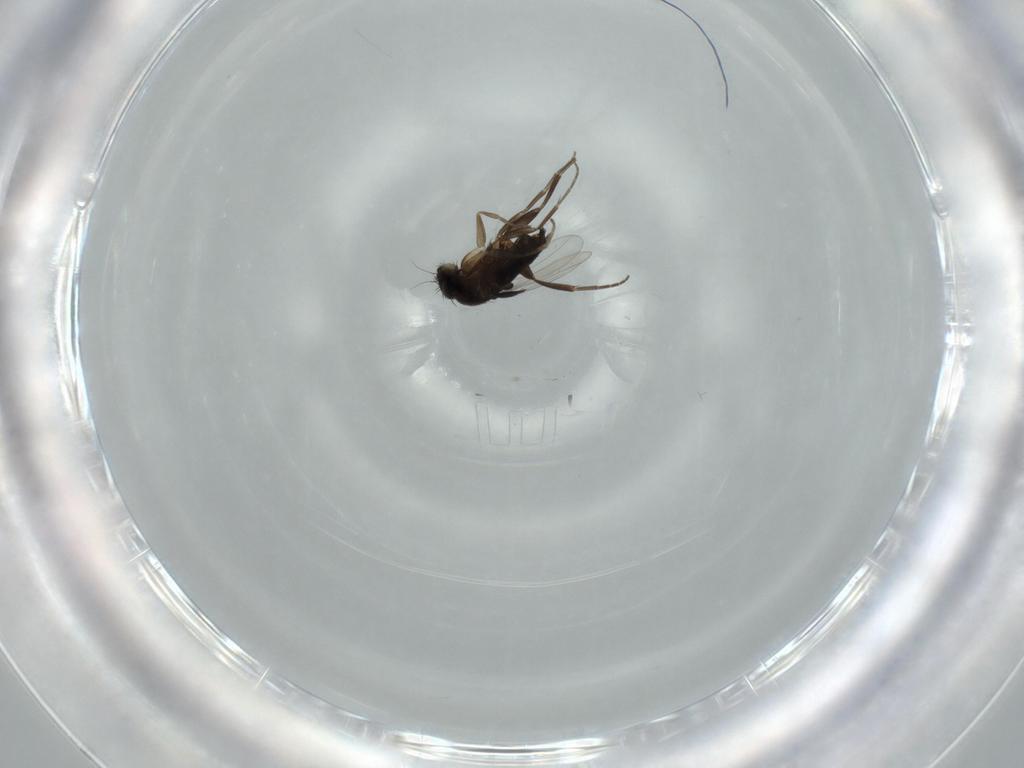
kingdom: Animalia
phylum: Arthropoda
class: Insecta
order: Diptera
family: Phoridae
